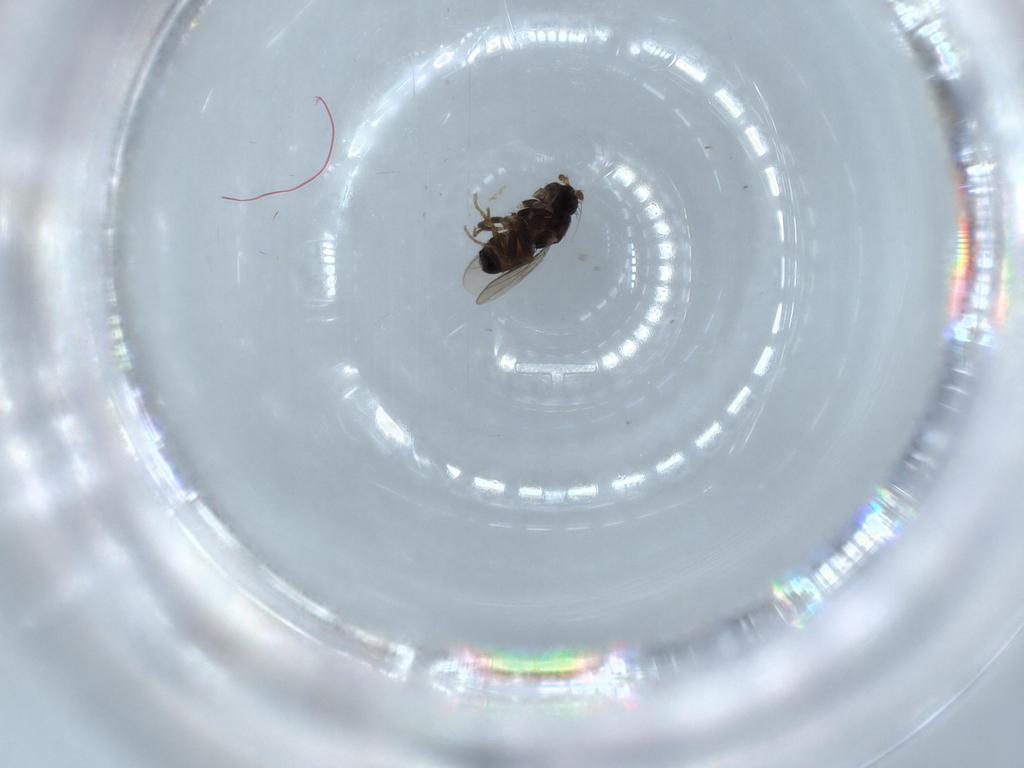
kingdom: Animalia
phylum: Arthropoda
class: Insecta
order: Diptera
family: Sphaeroceridae
